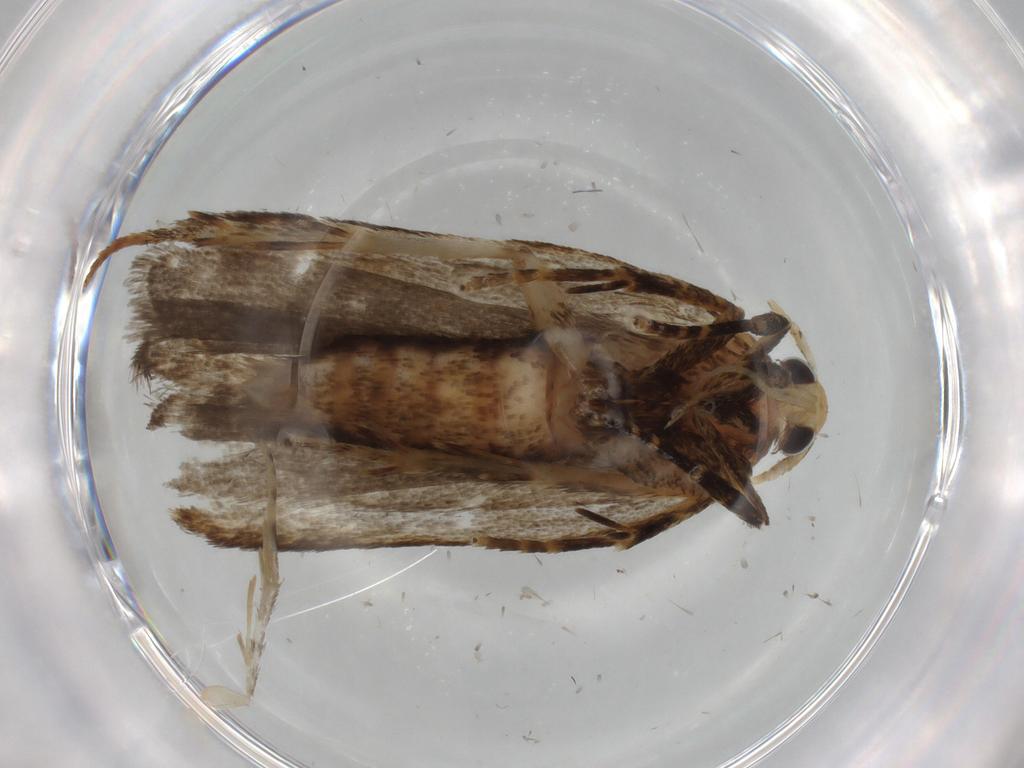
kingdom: Animalia
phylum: Arthropoda
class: Insecta
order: Lepidoptera
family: Autostichidae
